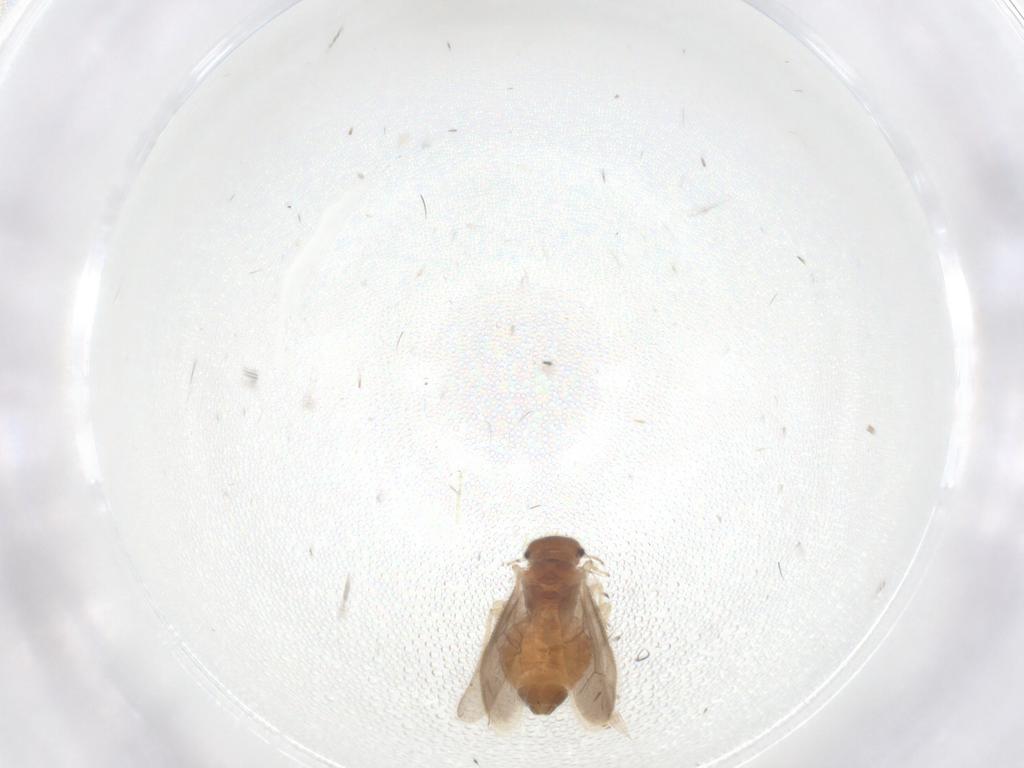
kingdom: Animalia
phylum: Arthropoda
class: Insecta
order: Psocodea
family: Archipsocidae
